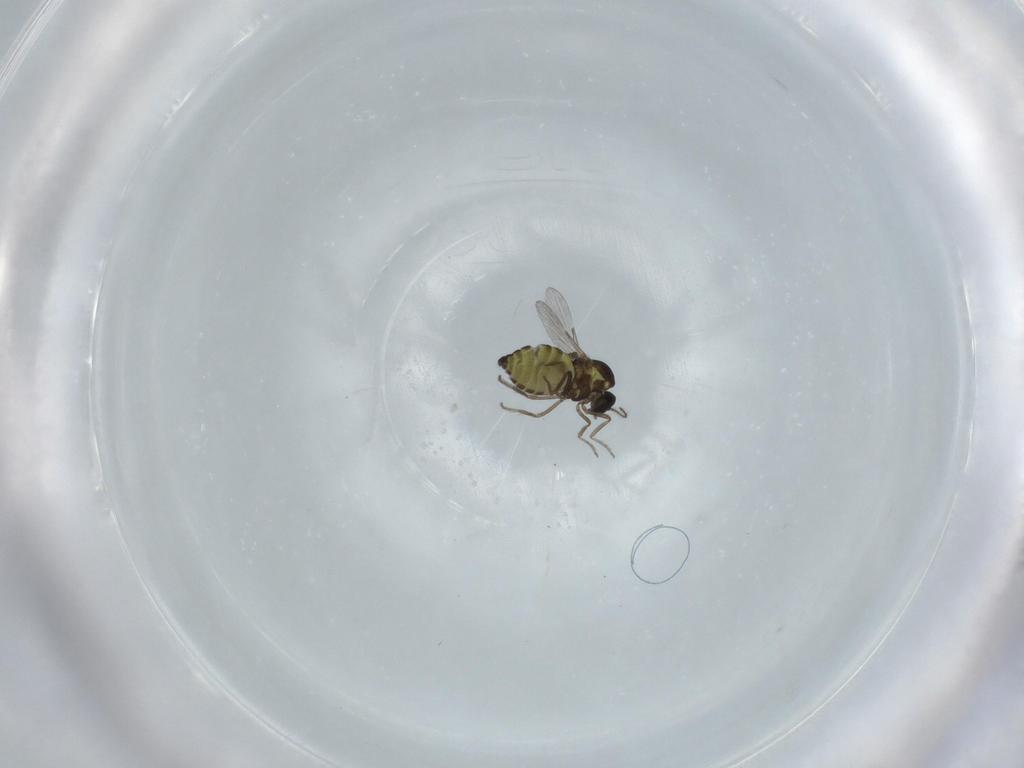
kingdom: Animalia
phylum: Arthropoda
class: Insecta
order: Diptera
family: Ceratopogonidae
